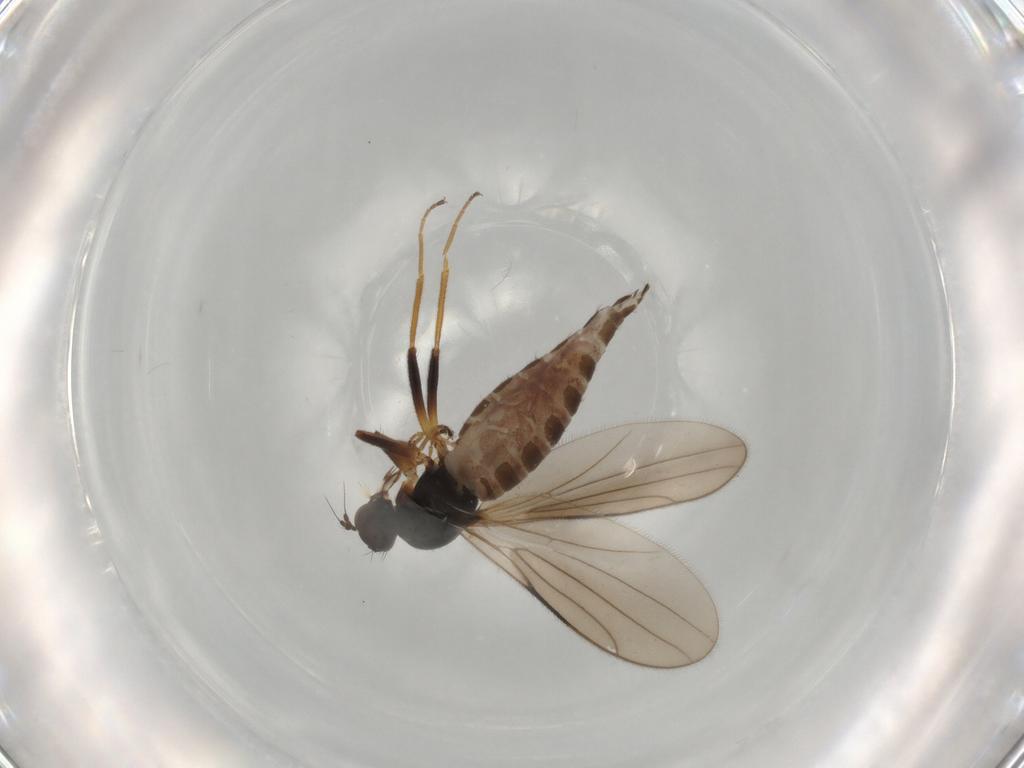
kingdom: Animalia
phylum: Arthropoda
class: Insecta
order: Diptera
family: Hybotidae
